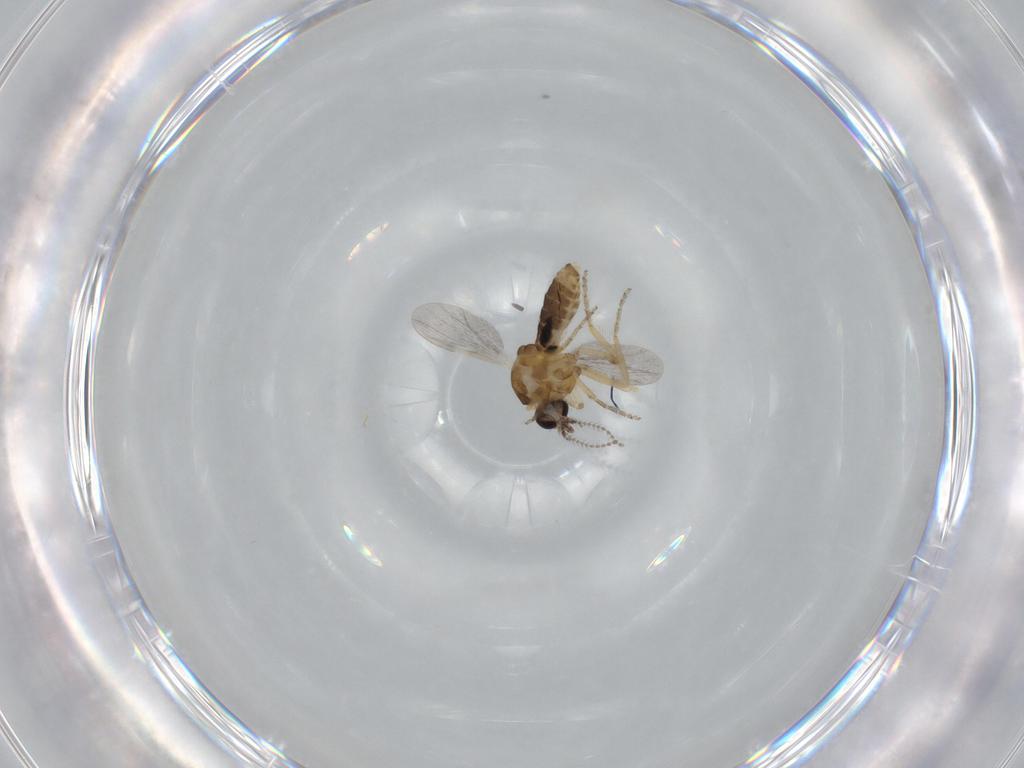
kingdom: Animalia
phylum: Arthropoda
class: Insecta
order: Diptera
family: Ceratopogonidae
